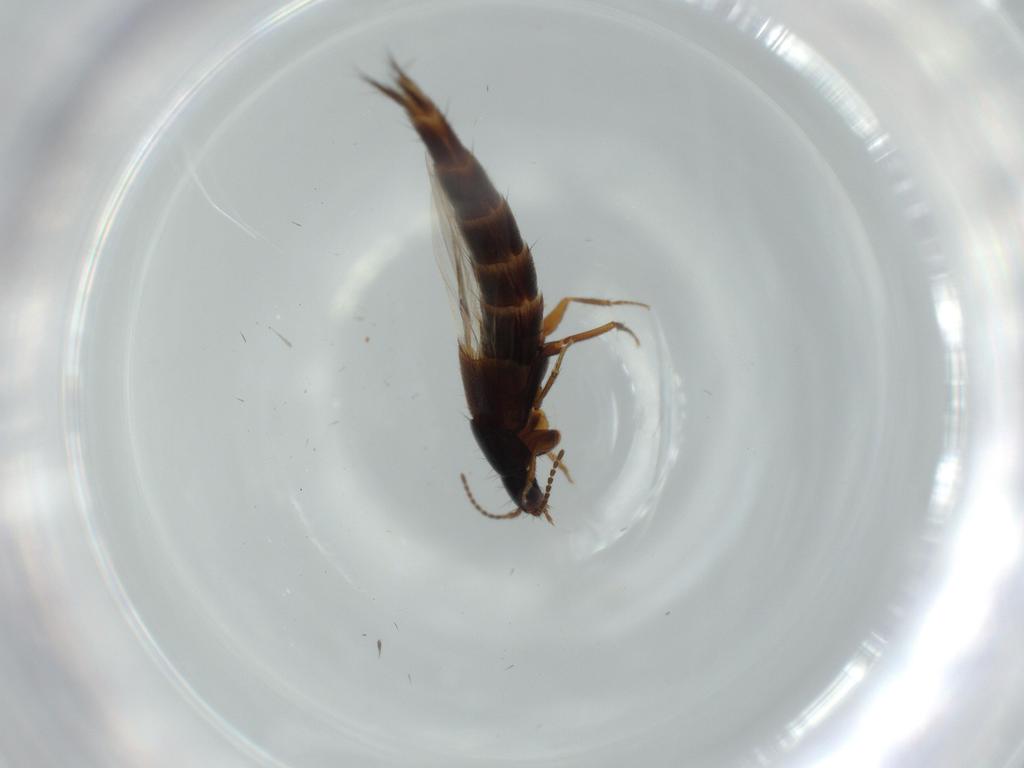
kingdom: Animalia
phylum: Arthropoda
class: Insecta
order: Coleoptera
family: Staphylinidae
